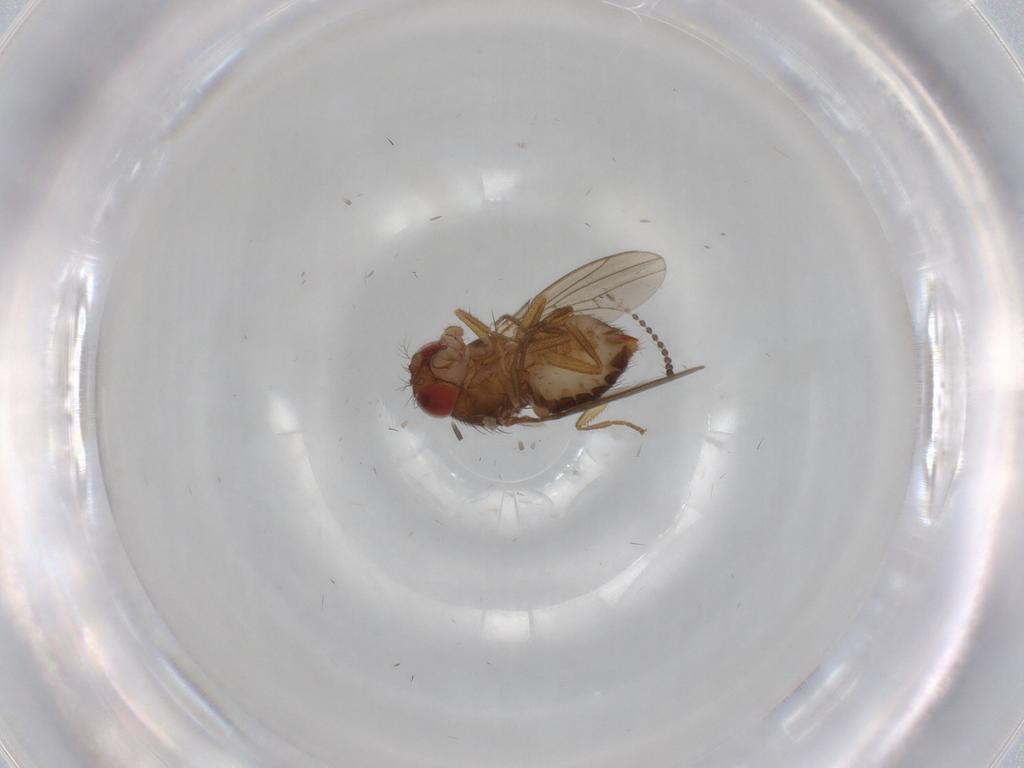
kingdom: Animalia
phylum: Arthropoda
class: Insecta
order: Diptera
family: Drosophilidae
